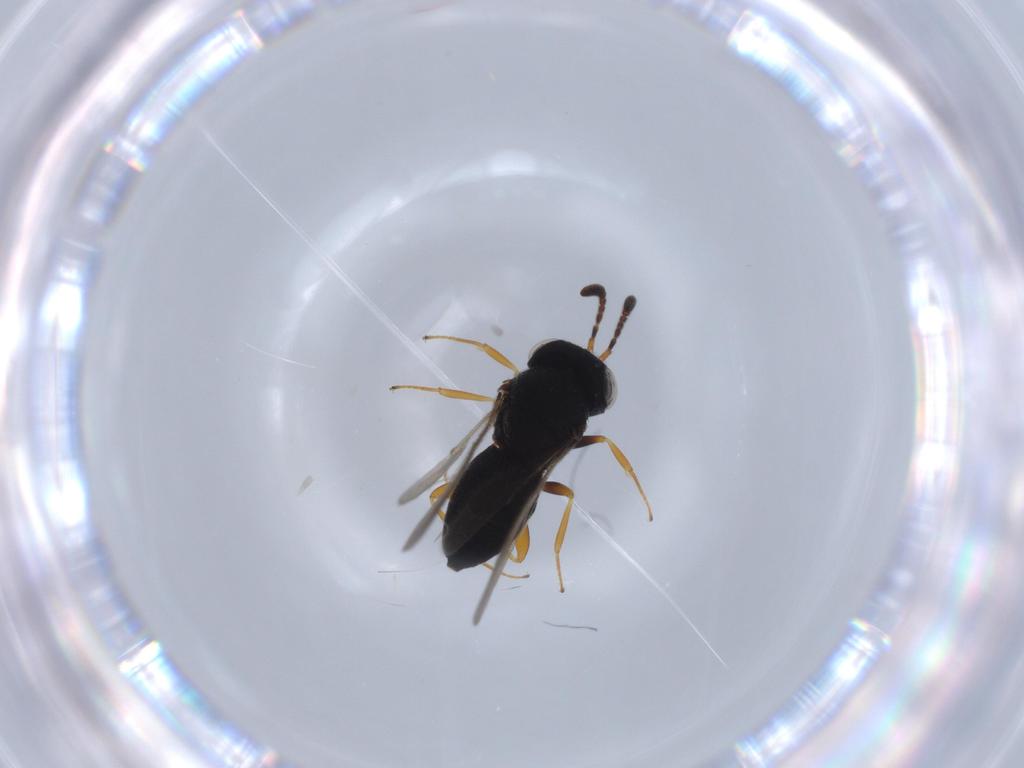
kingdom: Animalia
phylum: Arthropoda
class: Insecta
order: Hymenoptera
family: Scelionidae
